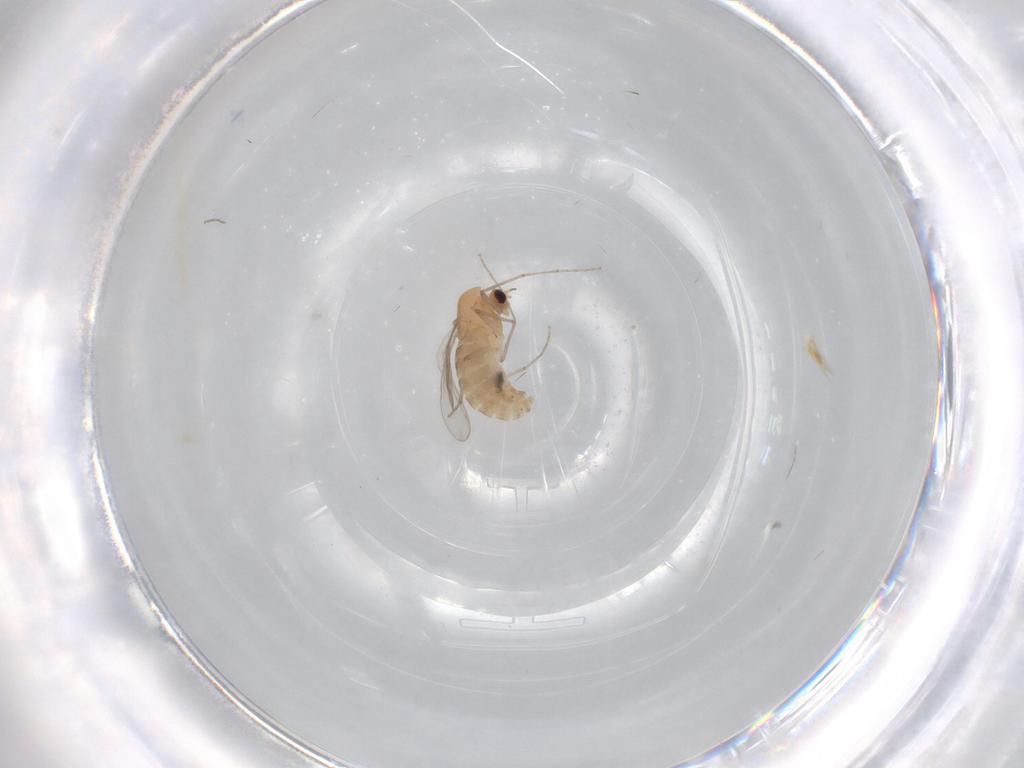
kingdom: Animalia
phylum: Arthropoda
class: Insecta
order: Diptera
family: Chironomidae
